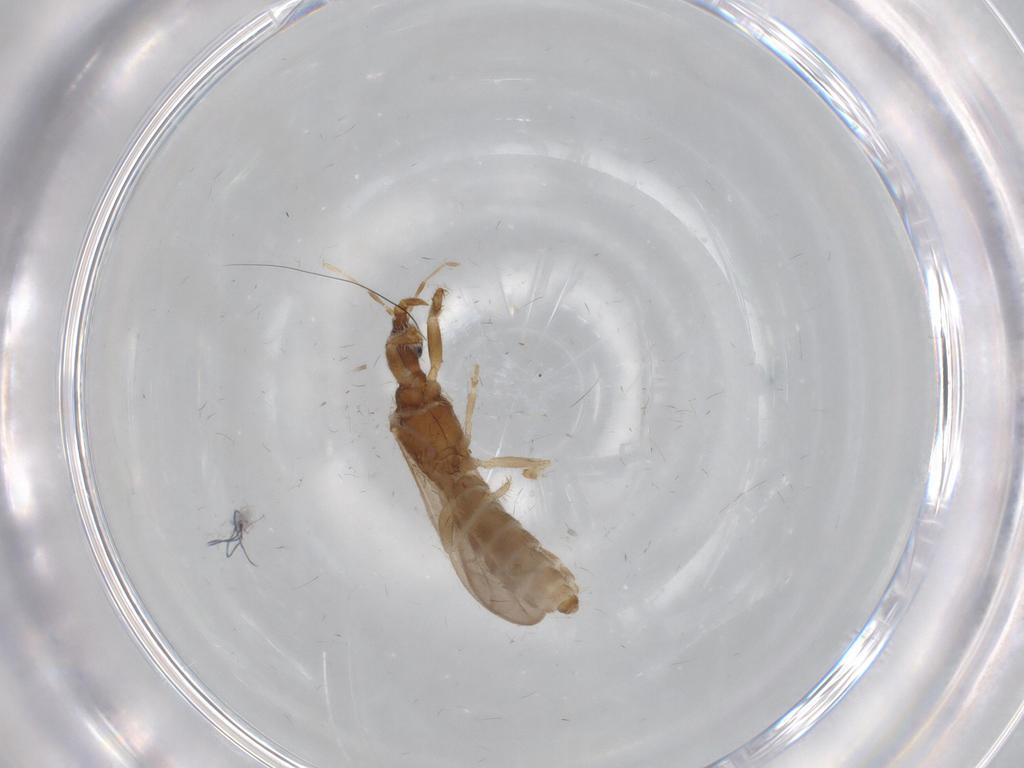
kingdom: Animalia
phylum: Arthropoda
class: Insecta
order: Hemiptera
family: Enicocephalidae
